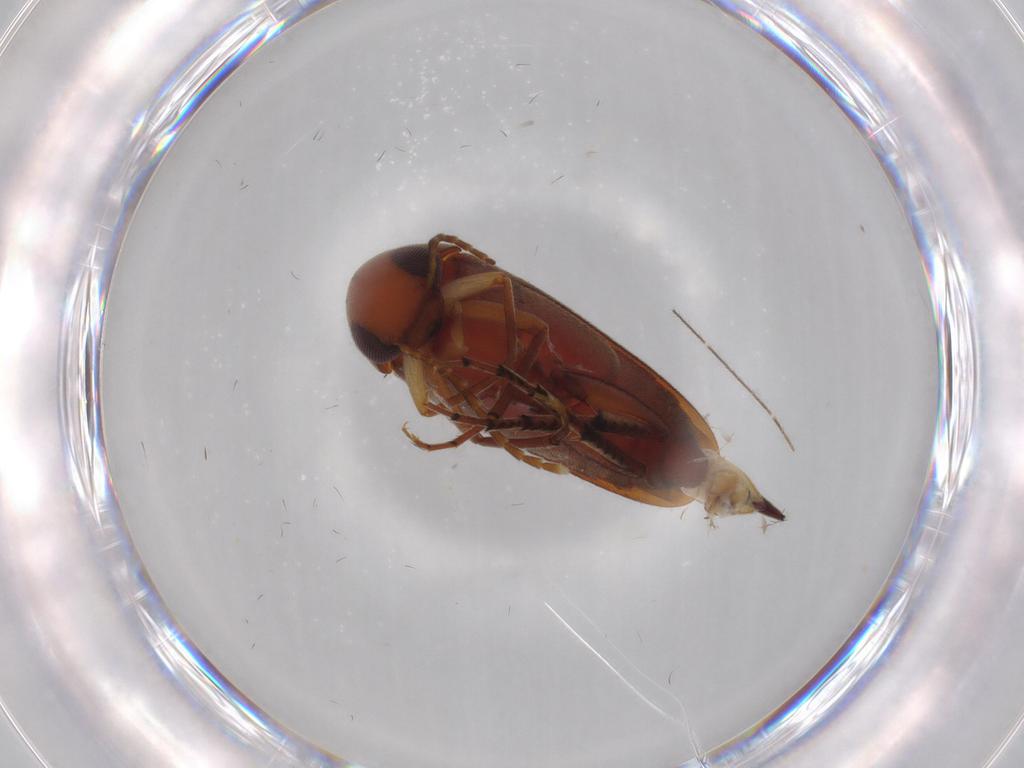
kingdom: Animalia
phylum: Arthropoda
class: Insecta
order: Coleoptera
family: Mordellidae
